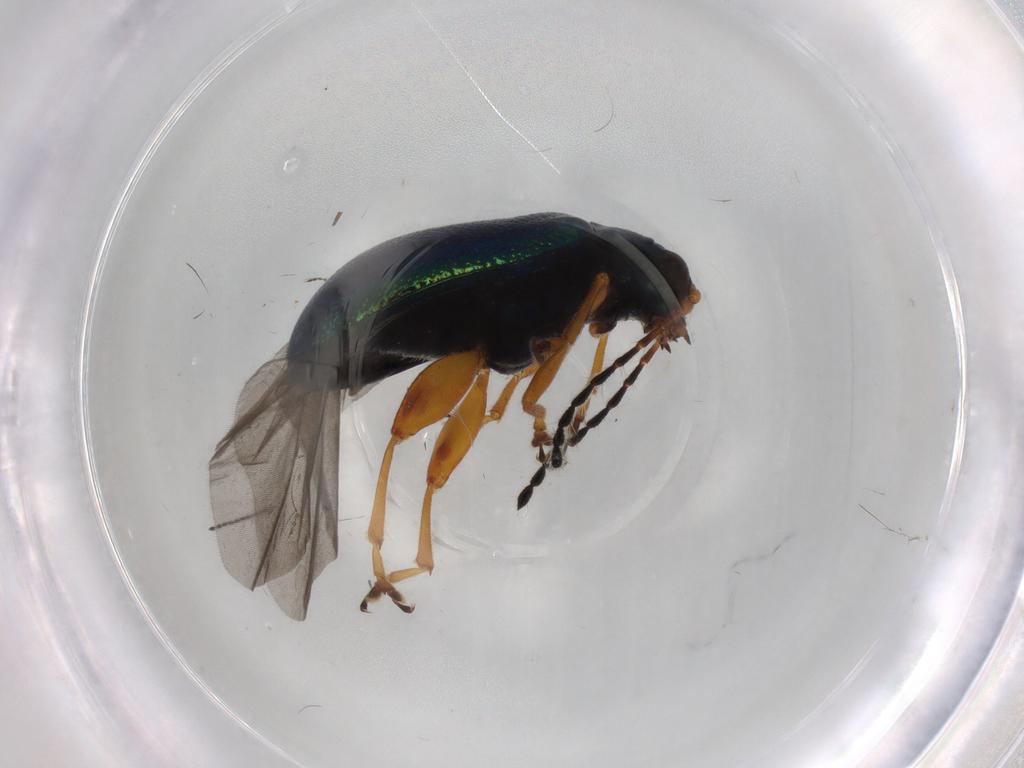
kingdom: Animalia
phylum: Arthropoda
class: Insecta
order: Coleoptera
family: Chrysomelidae
